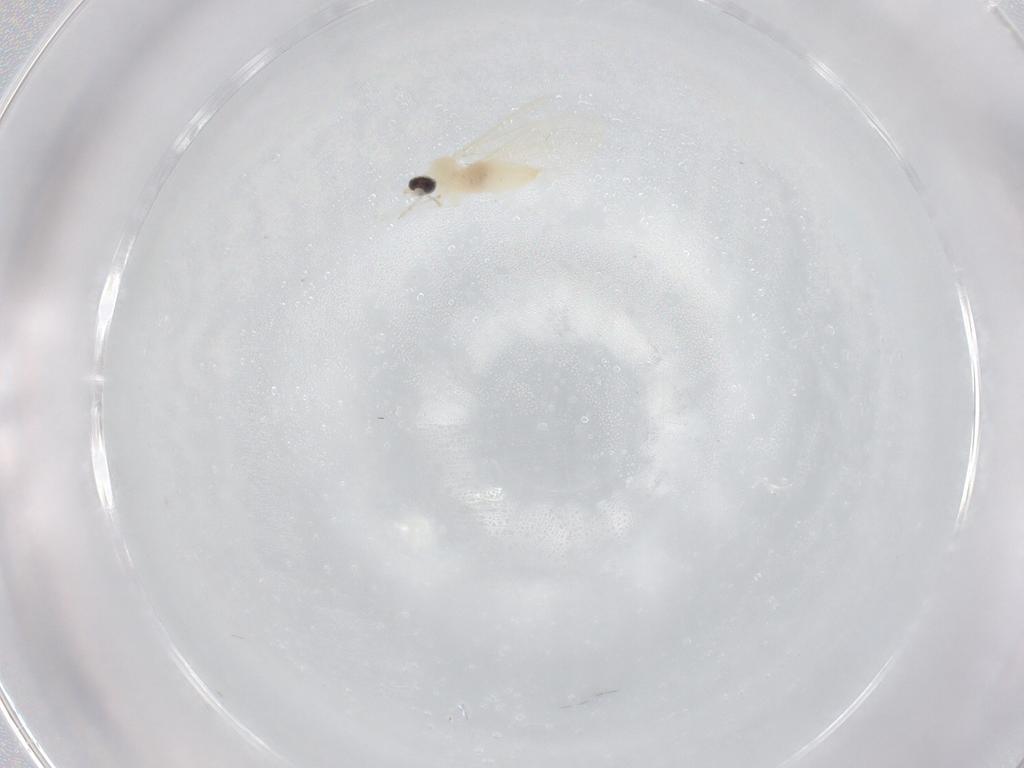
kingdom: Animalia
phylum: Arthropoda
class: Insecta
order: Diptera
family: Cecidomyiidae
